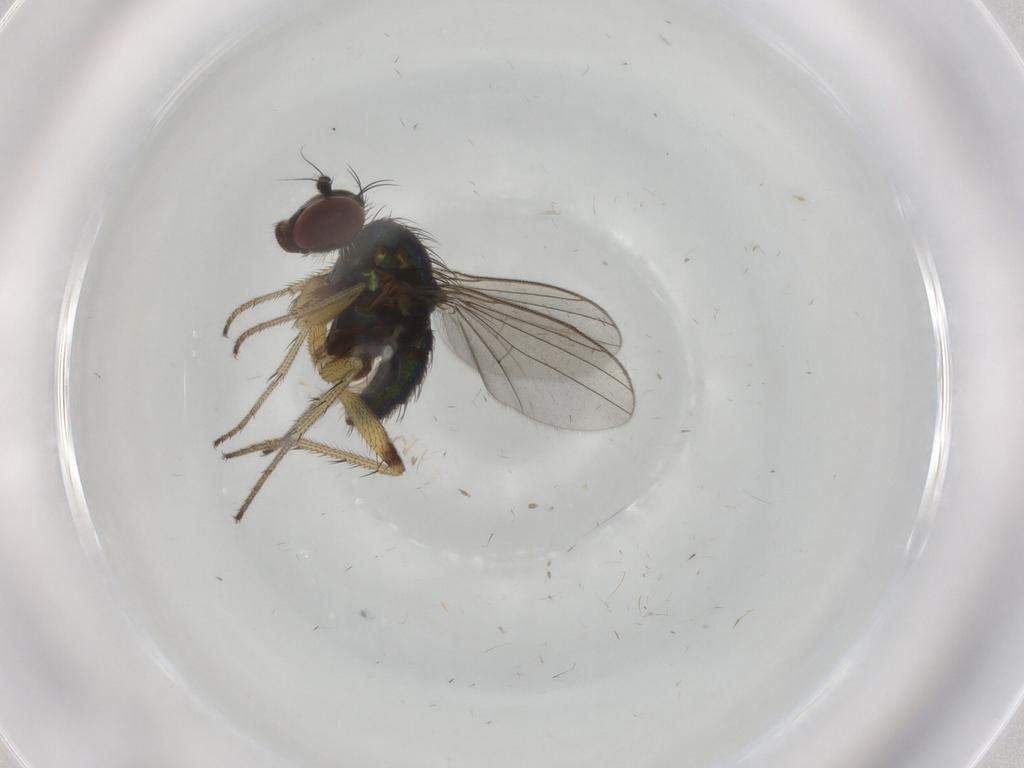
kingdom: Animalia
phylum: Arthropoda
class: Insecta
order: Diptera
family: Dolichopodidae
